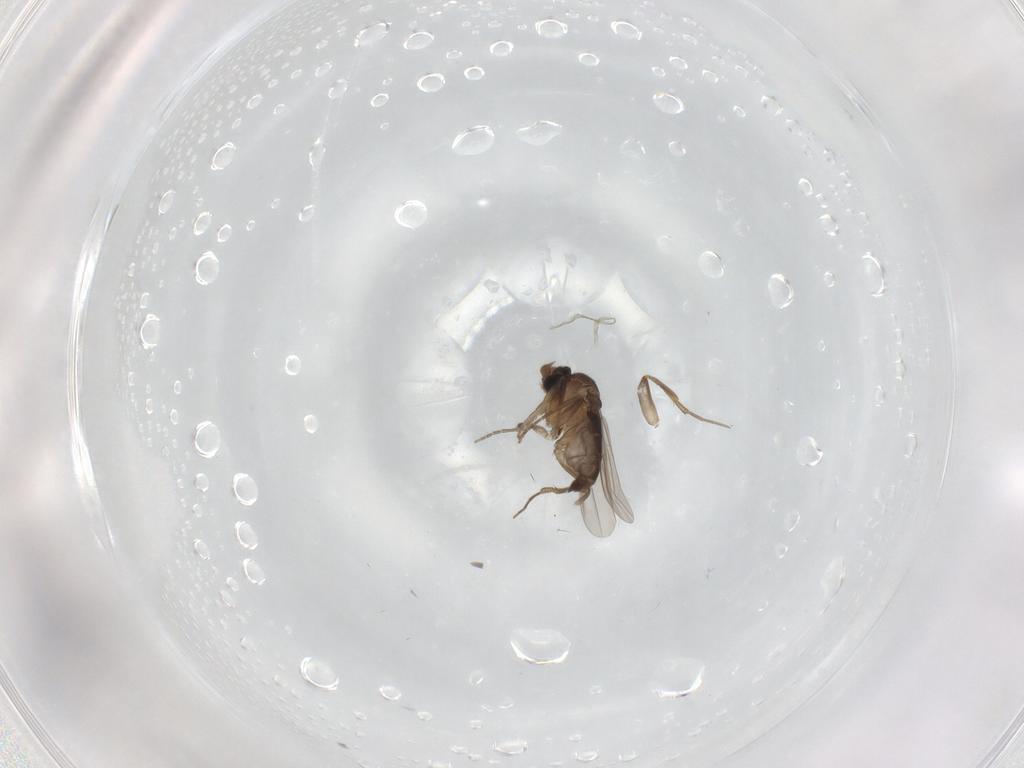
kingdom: Animalia
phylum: Arthropoda
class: Insecta
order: Diptera
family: Phoridae
